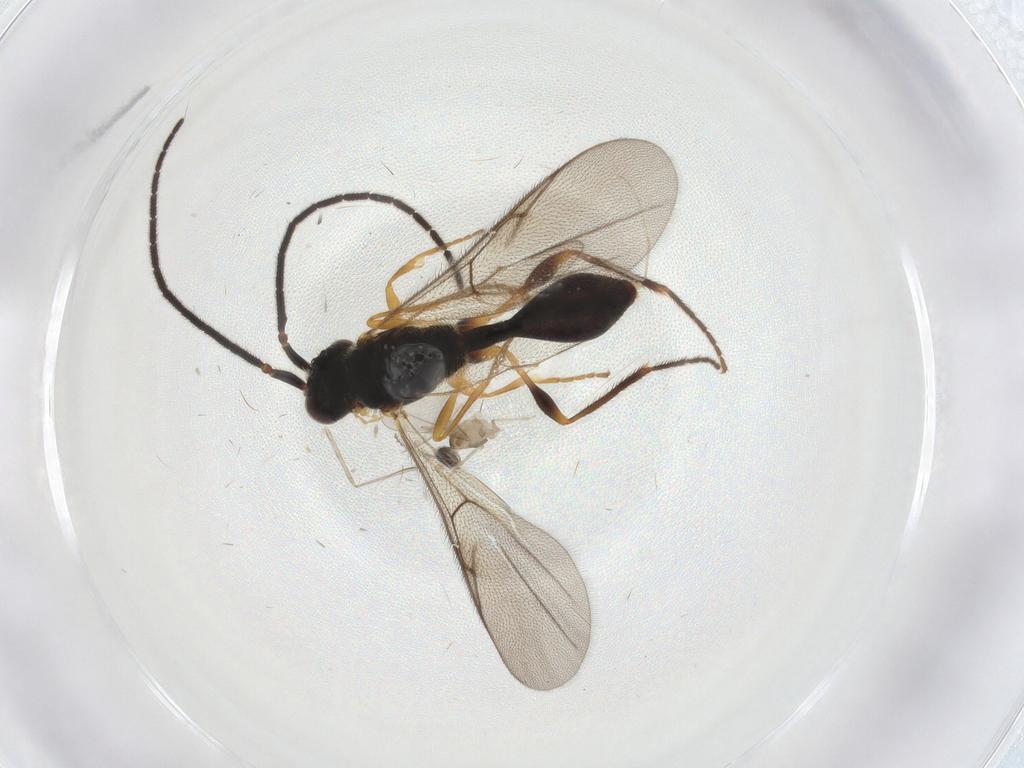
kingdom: Animalia
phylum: Arthropoda
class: Insecta
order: Diptera
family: Cecidomyiidae
